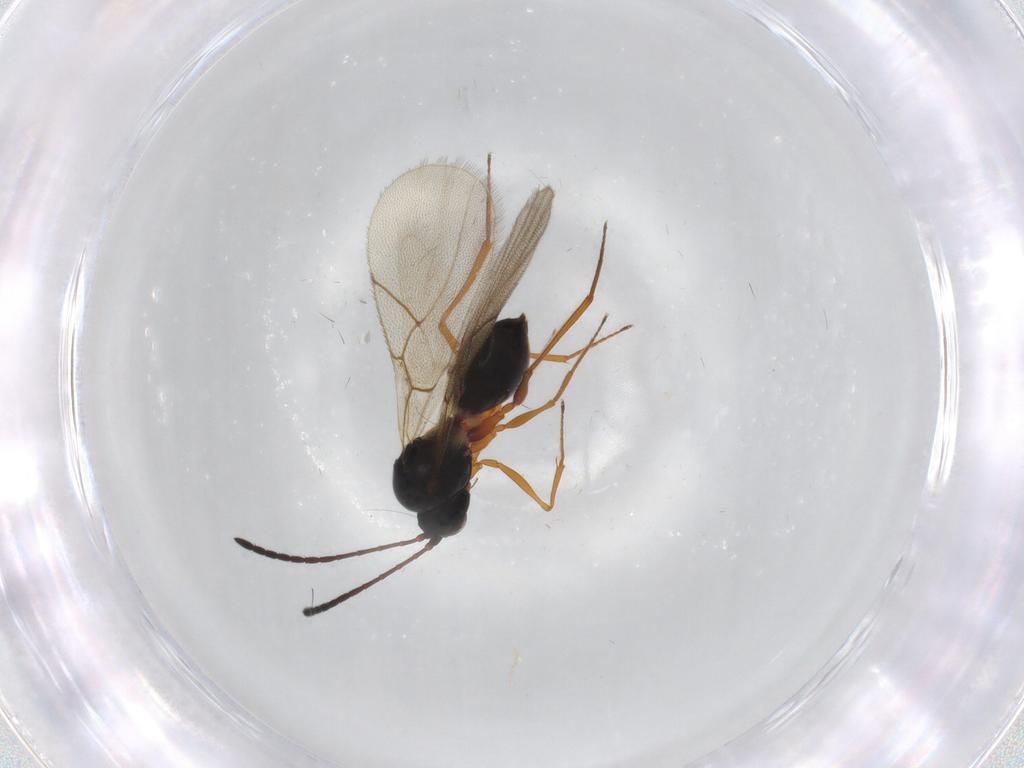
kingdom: Animalia
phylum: Arthropoda
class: Insecta
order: Hymenoptera
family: Figitidae
